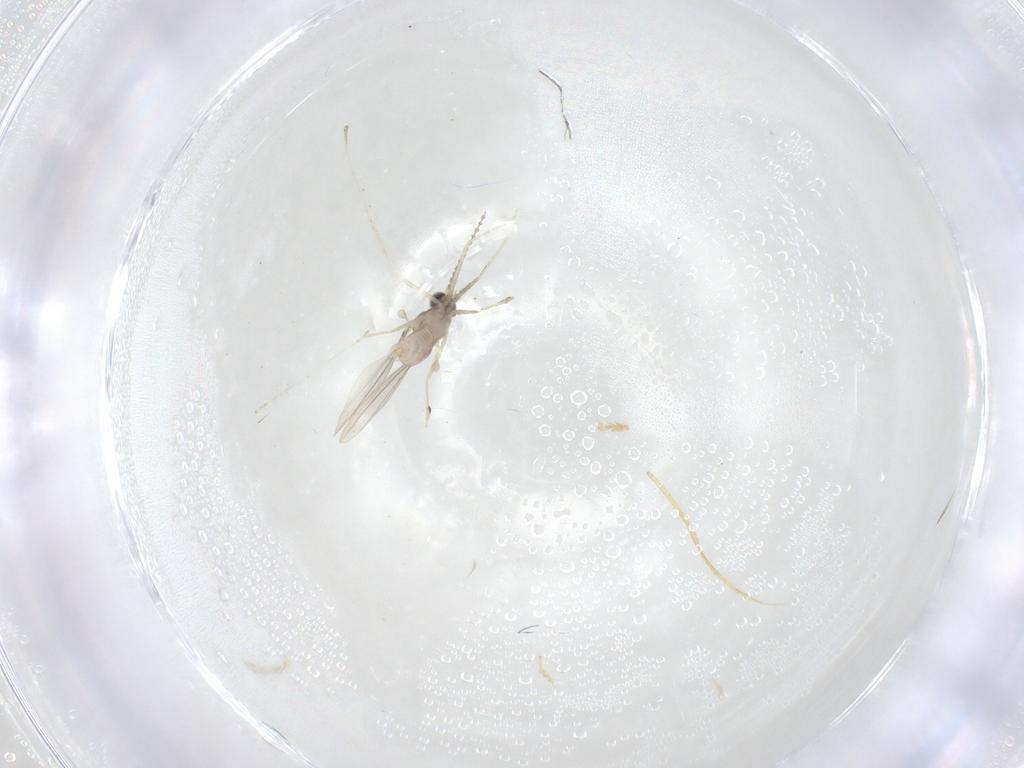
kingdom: Animalia
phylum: Arthropoda
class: Insecta
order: Diptera
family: Cecidomyiidae
